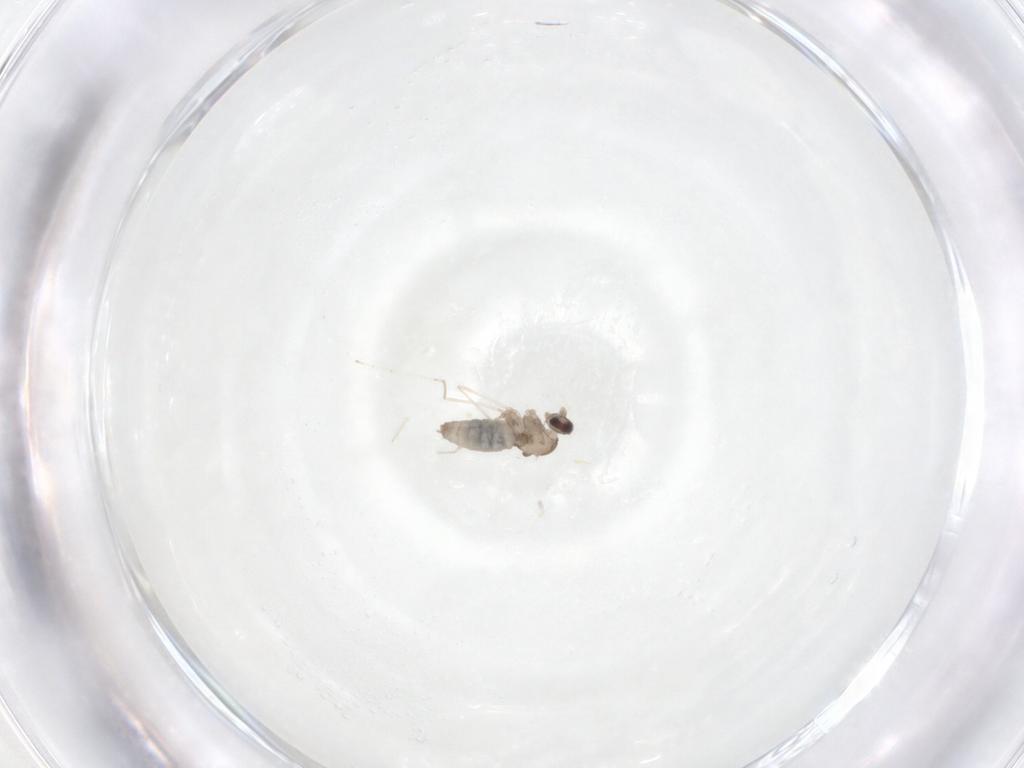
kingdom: Animalia
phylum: Arthropoda
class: Insecta
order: Diptera
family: Cecidomyiidae
